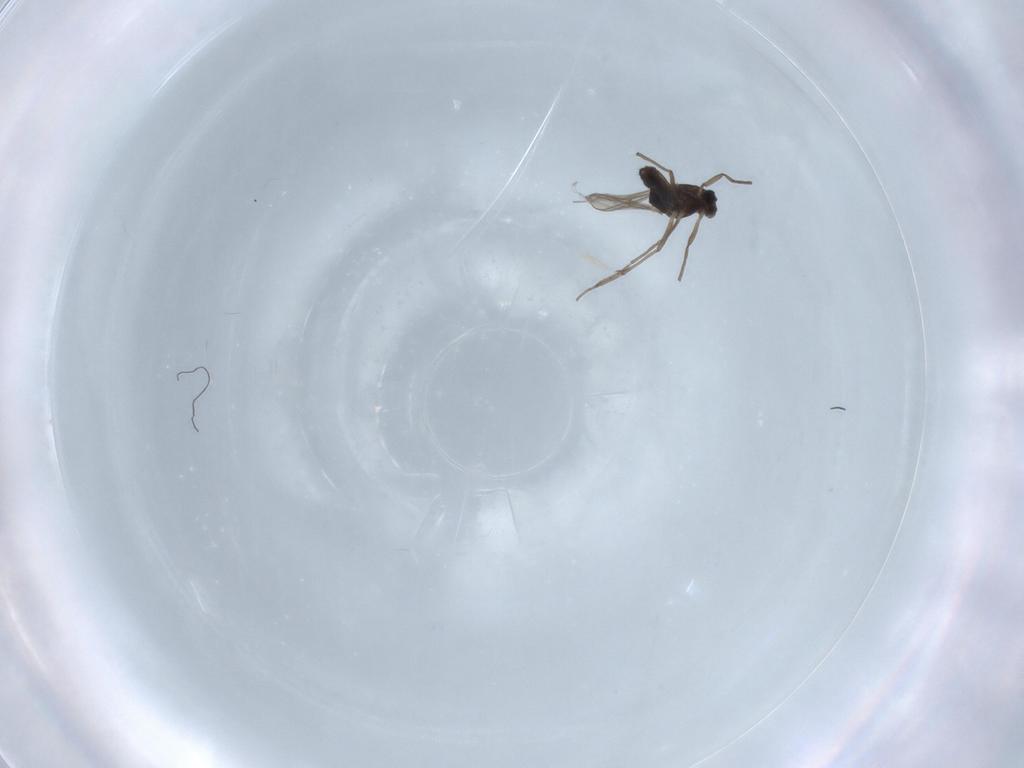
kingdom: Animalia
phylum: Arthropoda
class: Insecta
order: Diptera
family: Chironomidae
